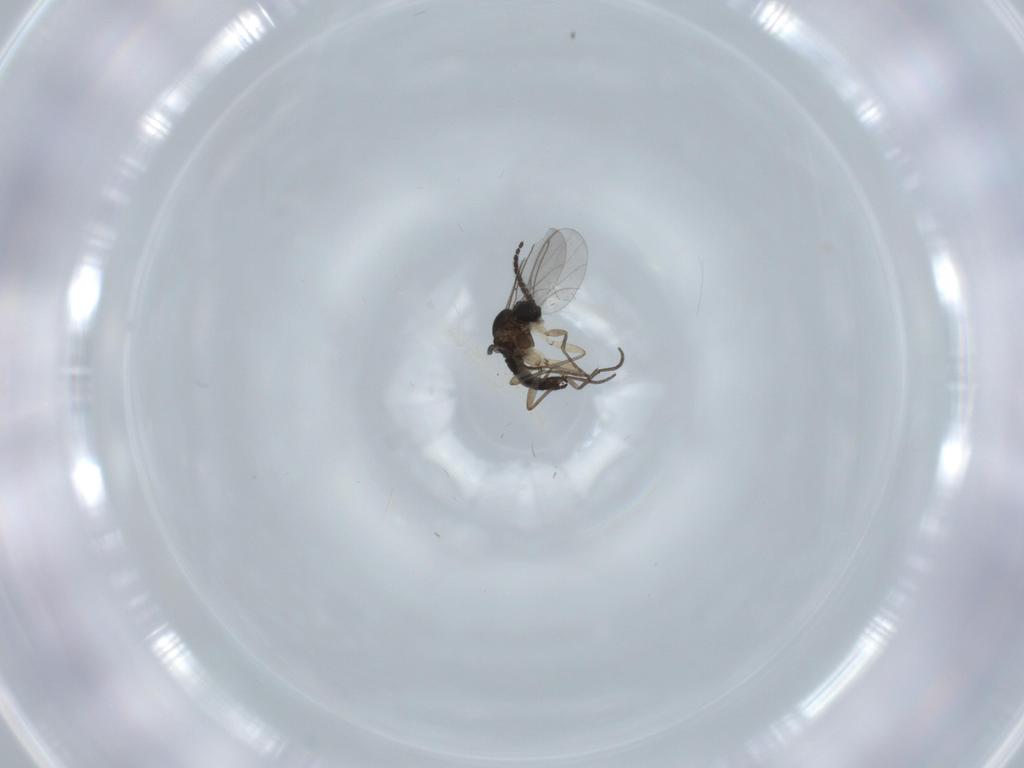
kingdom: Animalia
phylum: Arthropoda
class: Insecta
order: Diptera
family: Sciaridae
